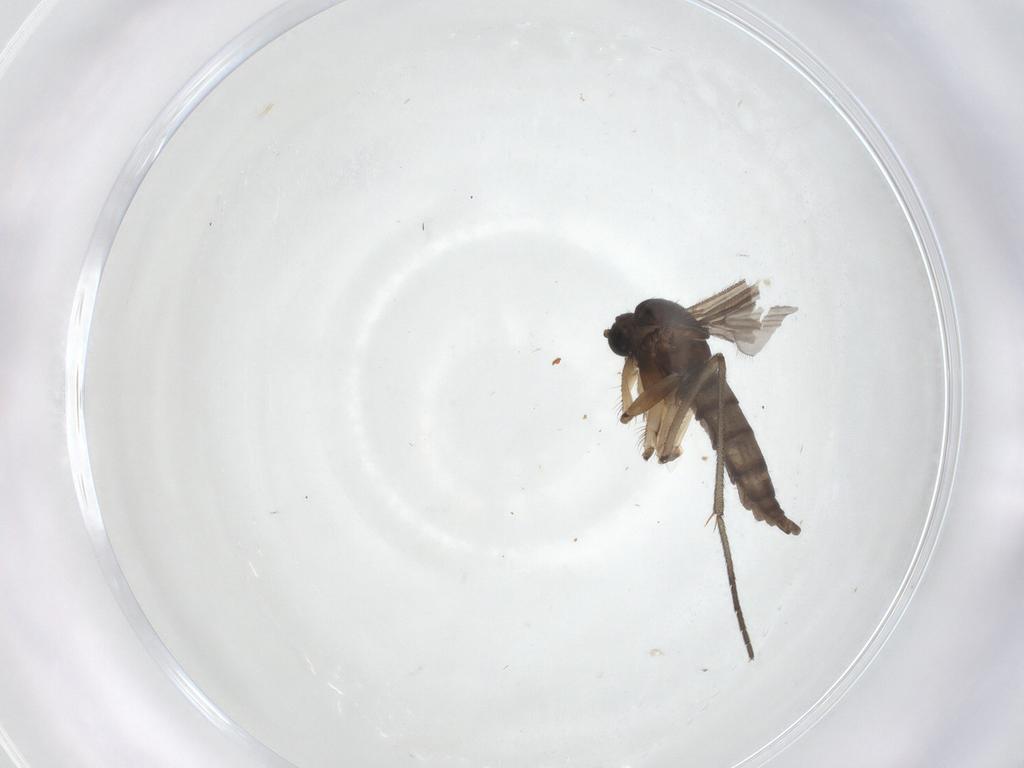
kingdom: Animalia
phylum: Arthropoda
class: Insecta
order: Diptera
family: Sciaridae
